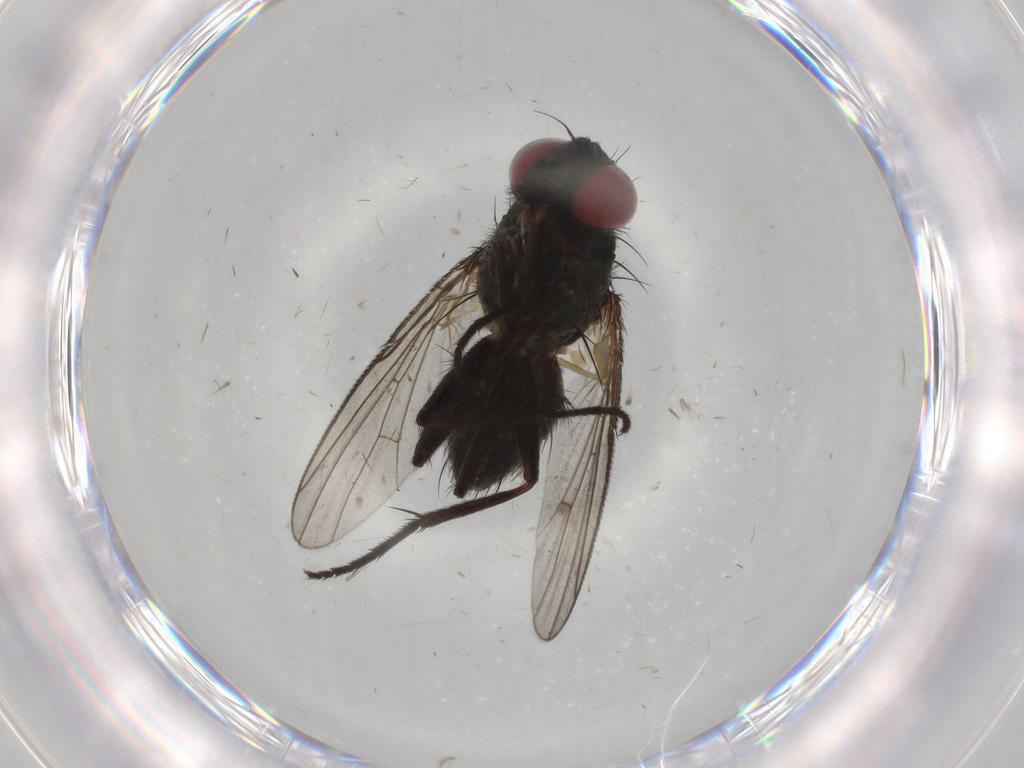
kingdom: Animalia
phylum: Arthropoda
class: Insecta
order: Diptera
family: Muscidae
